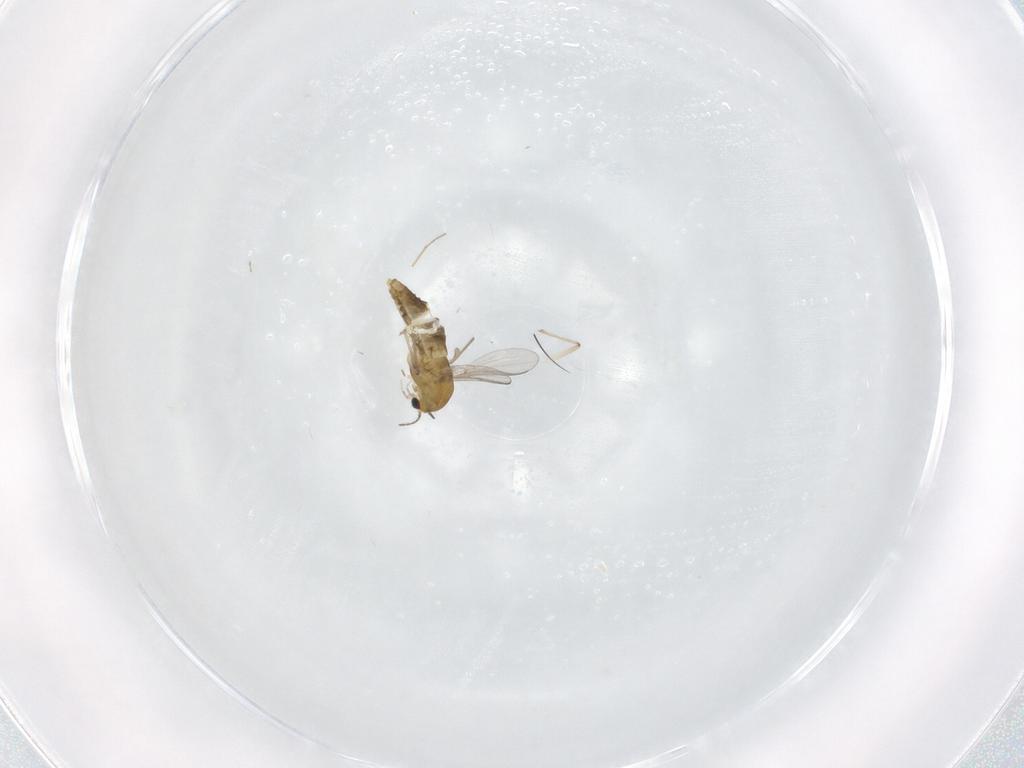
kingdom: Animalia
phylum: Arthropoda
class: Insecta
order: Diptera
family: Chironomidae
